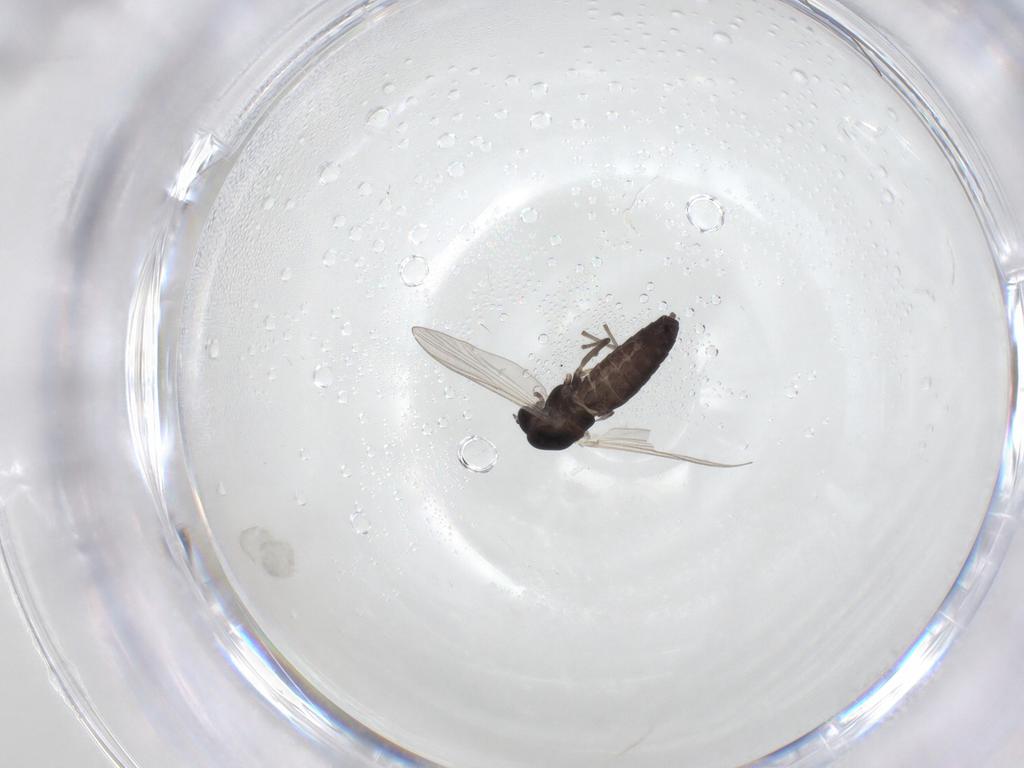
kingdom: Animalia
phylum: Arthropoda
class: Insecta
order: Diptera
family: Chironomidae
